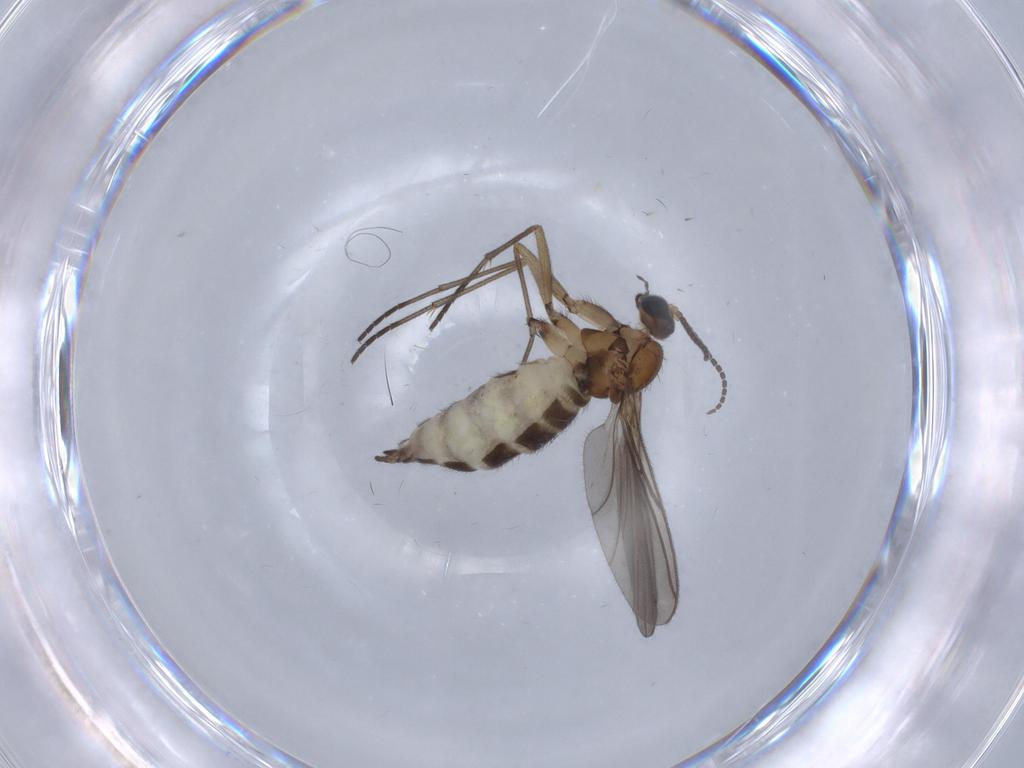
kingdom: Animalia
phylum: Arthropoda
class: Insecta
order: Diptera
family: Sciaridae
